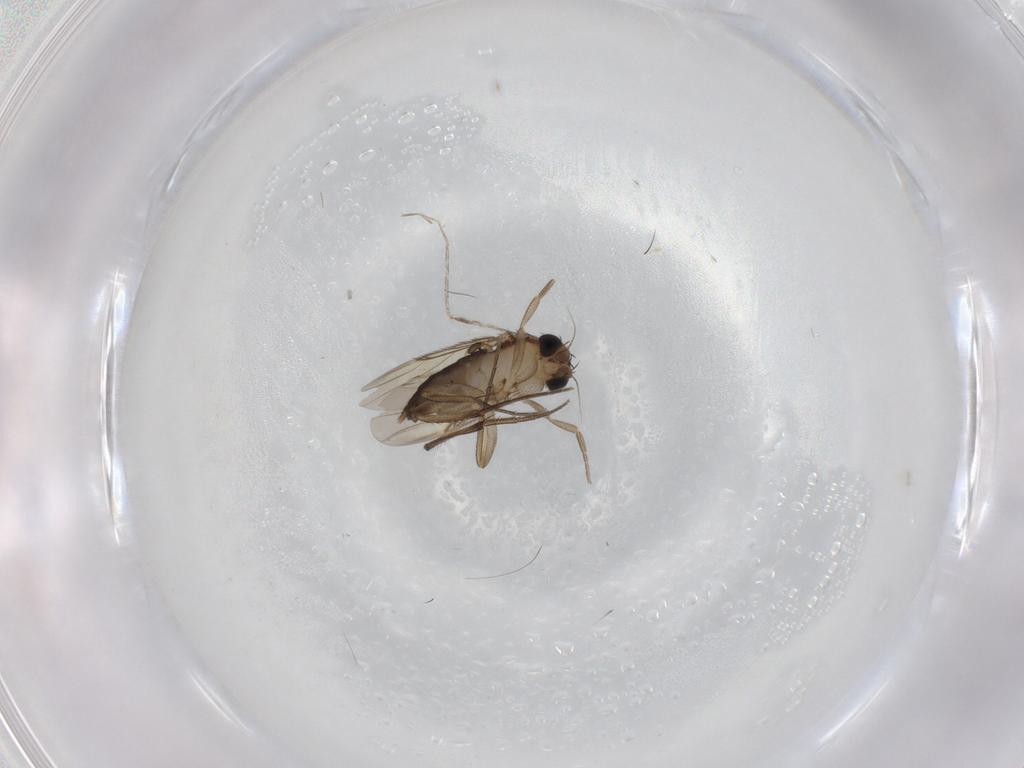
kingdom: Animalia
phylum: Arthropoda
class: Insecta
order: Diptera
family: Phoridae
